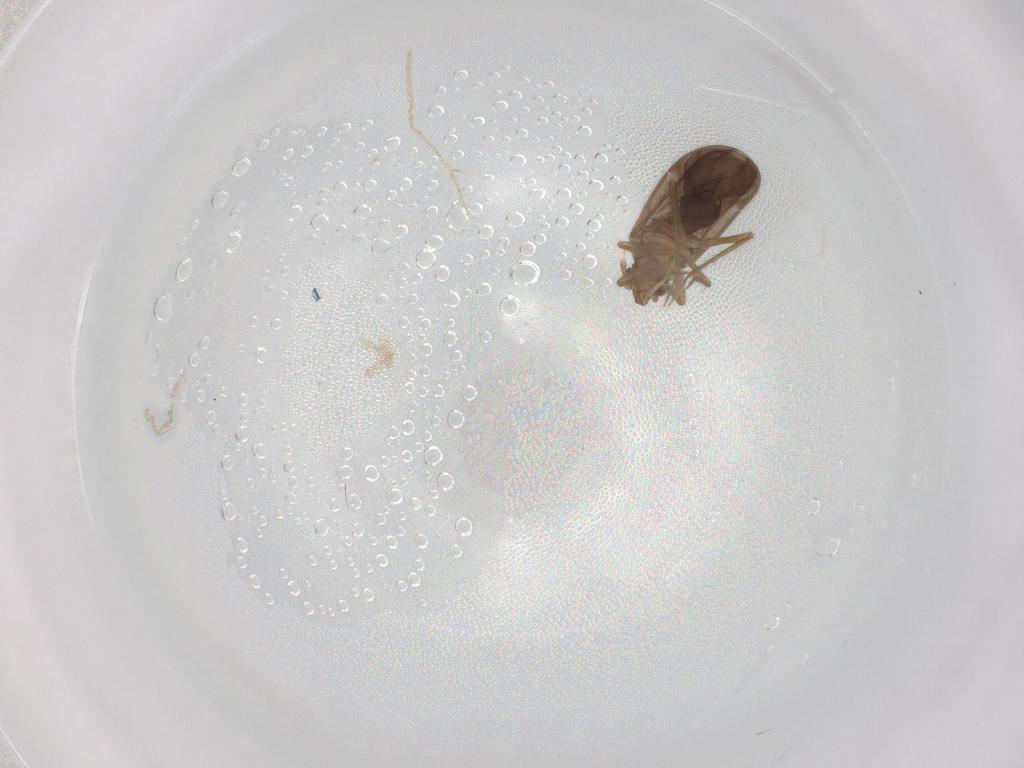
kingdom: Animalia
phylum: Arthropoda
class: Insecta
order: Hemiptera
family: Ceratocombidae
